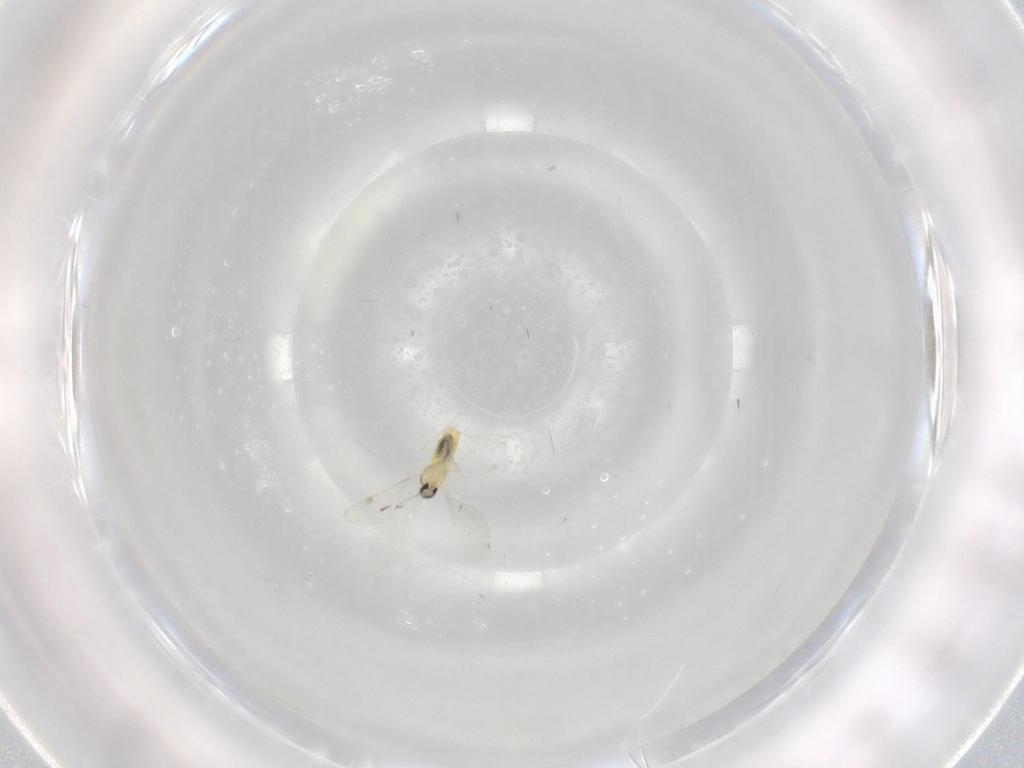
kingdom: Animalia
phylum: Arthropoda
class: Insecta
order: Diptera
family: Cecidomyiidae
